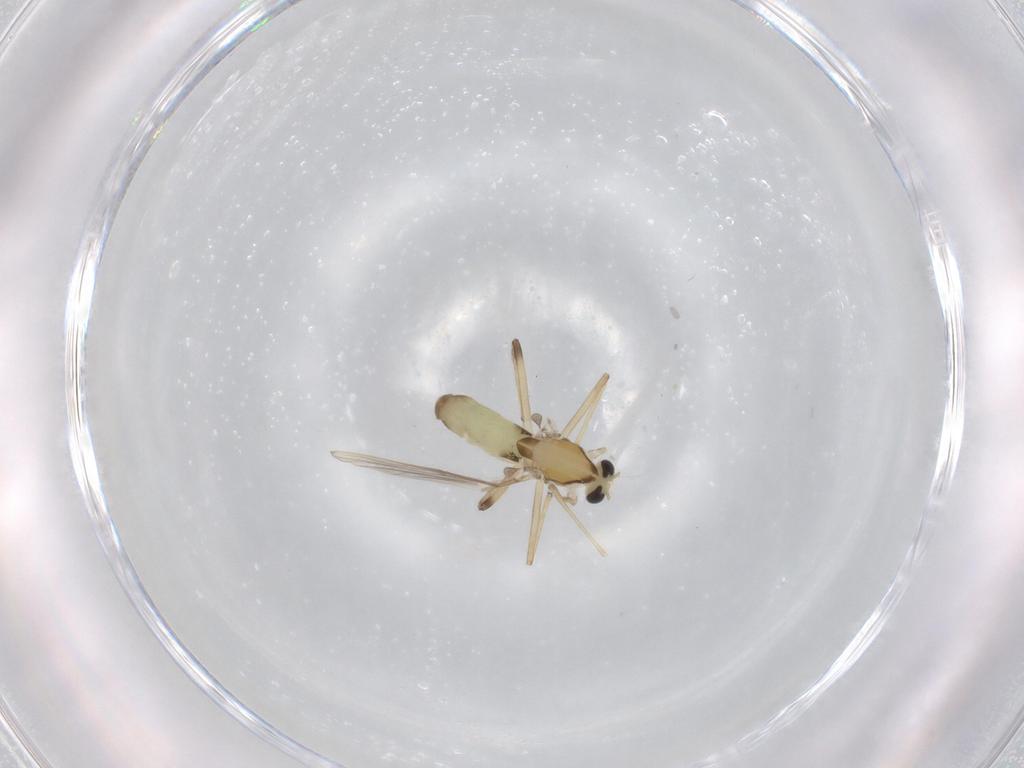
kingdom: Animalia
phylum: Arthropoda
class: Insecta
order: Diptera
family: Chironomidae
